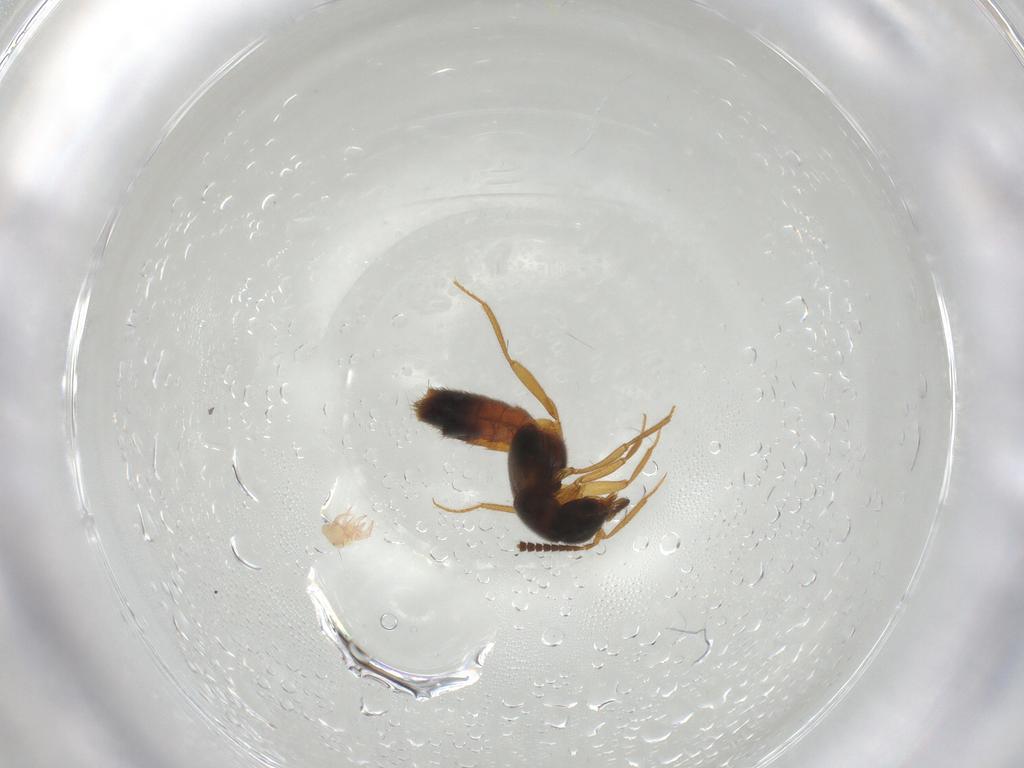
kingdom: Animalia
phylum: Arthropoda
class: Insecta
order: Coleoptera
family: Staphylinidae
